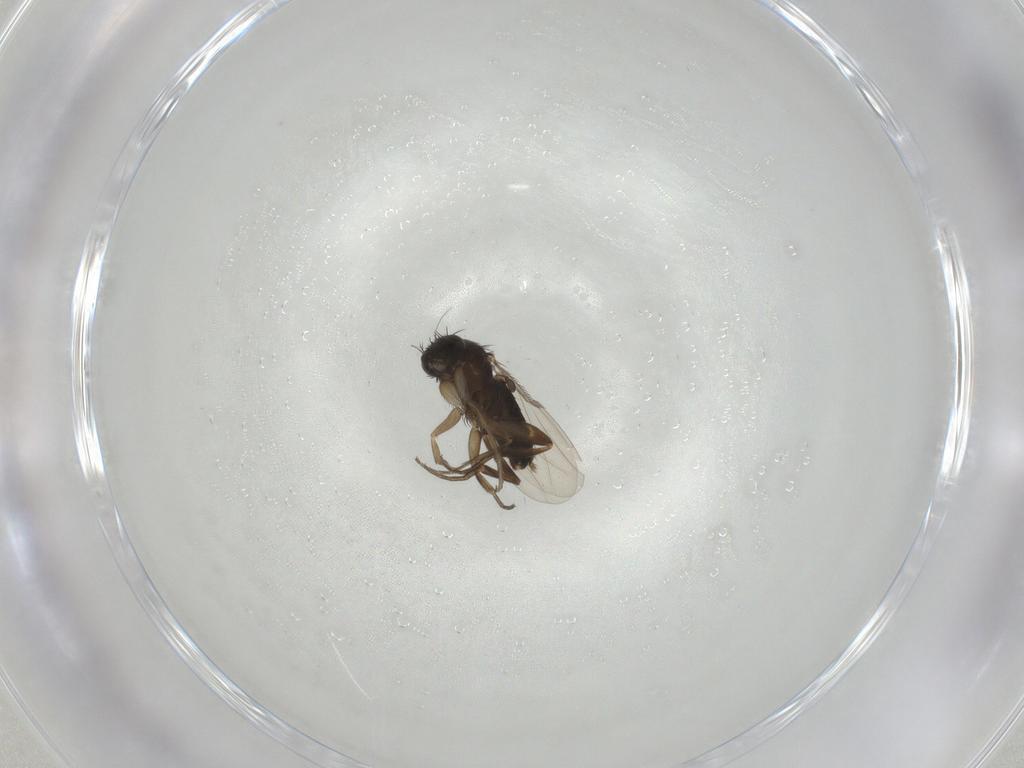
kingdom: Animalia
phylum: Arthropoda
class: Insecta
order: Diptera
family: Phoridae
